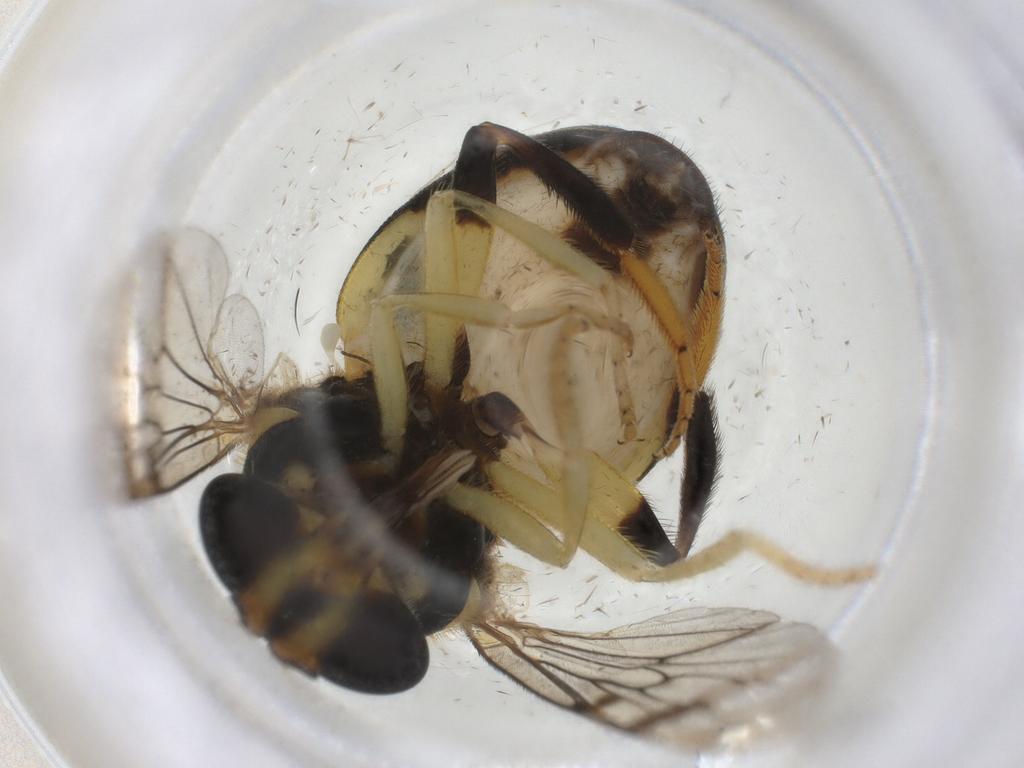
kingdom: Animalia
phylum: Arthropoda
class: Insecta
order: Diptera
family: Syrphidae
